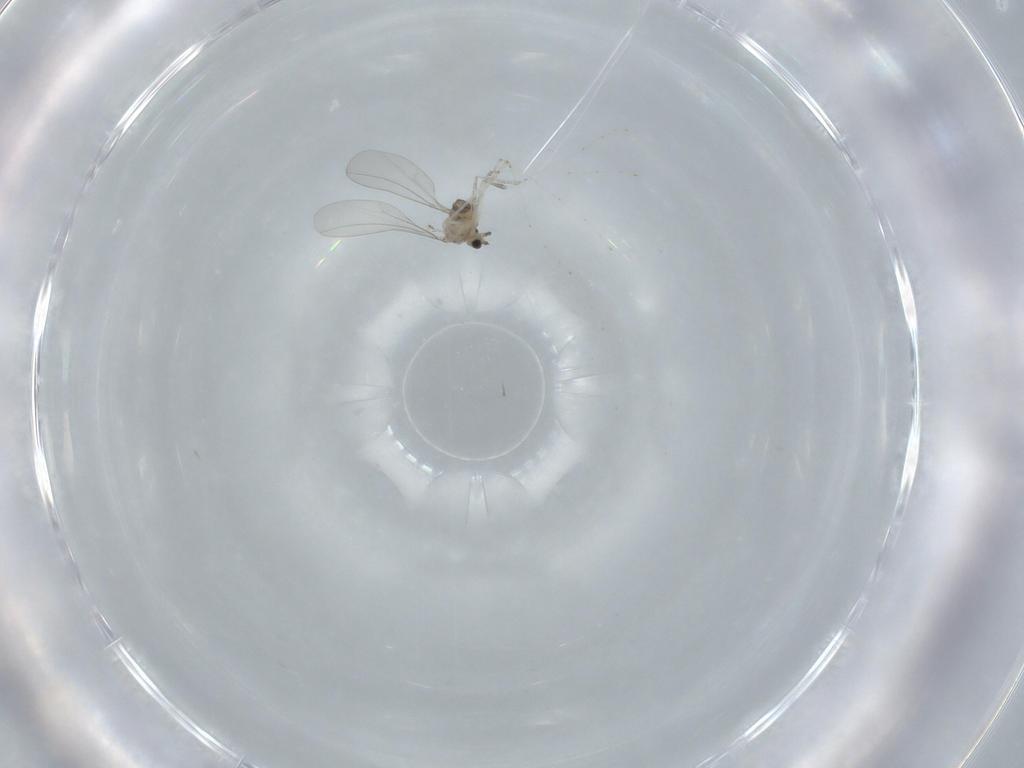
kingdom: Animalia
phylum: Arthropoda
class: Insecta
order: Diptera
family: Cecidomyiidae
